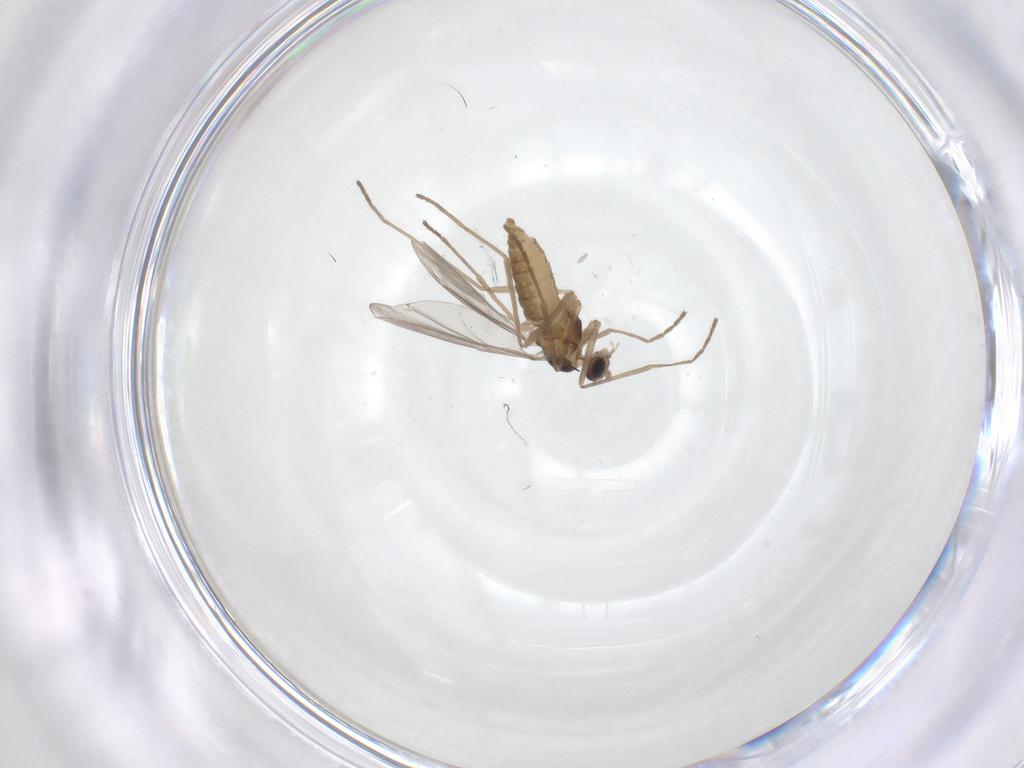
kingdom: Animalia
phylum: Arthropoda
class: Insecta
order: Diptera
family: Cecidomyiidae
